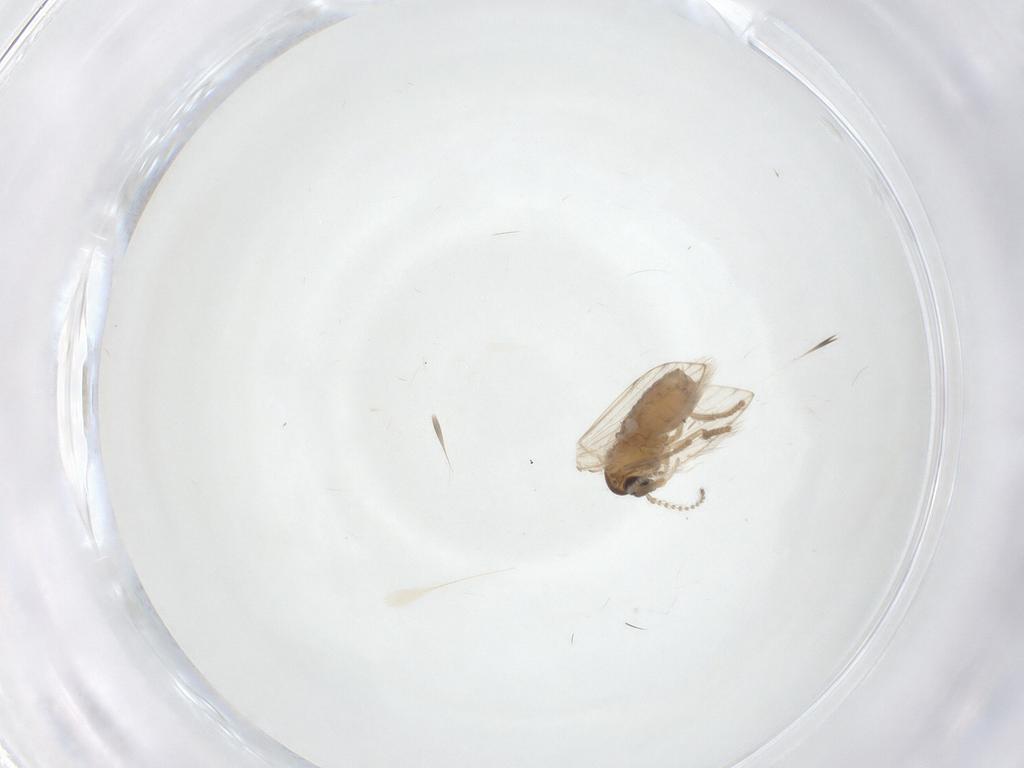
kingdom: Animalia
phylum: Arthropoda
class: Insecta
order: Diptera
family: Psychodidae
